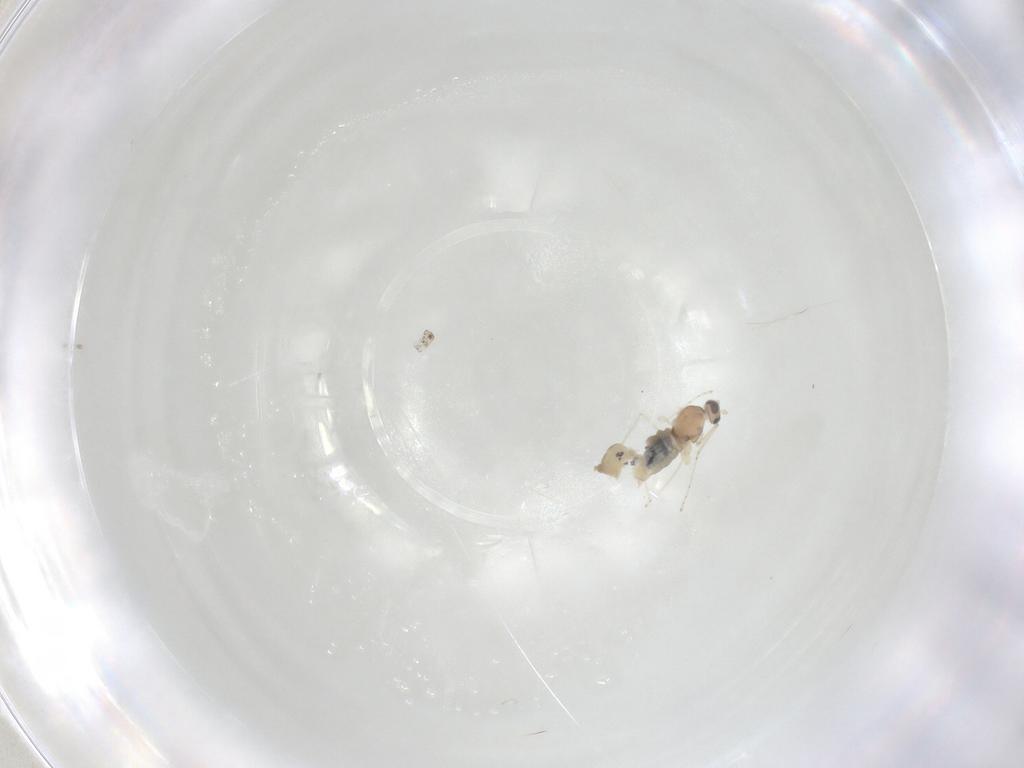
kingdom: Animalia
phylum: Arthropoda
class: Insecta
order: Diptera
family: Cecidomyiidae
